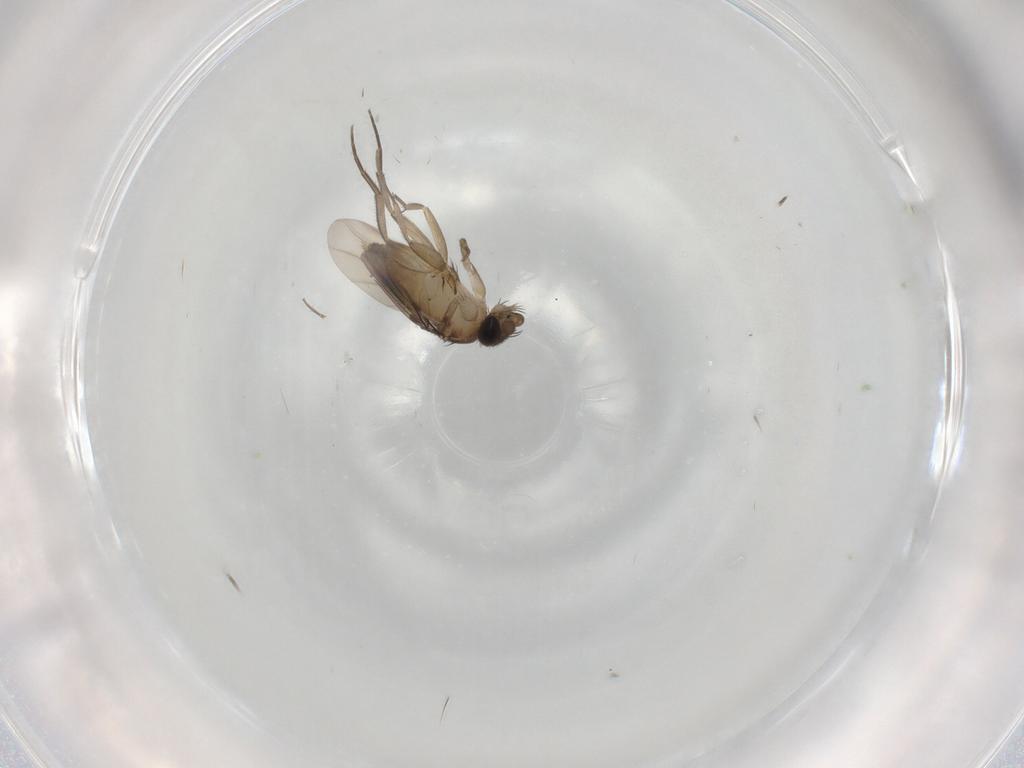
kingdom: Animalia
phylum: Arthropoda
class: Insecta
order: Diptera
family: Phoridae
